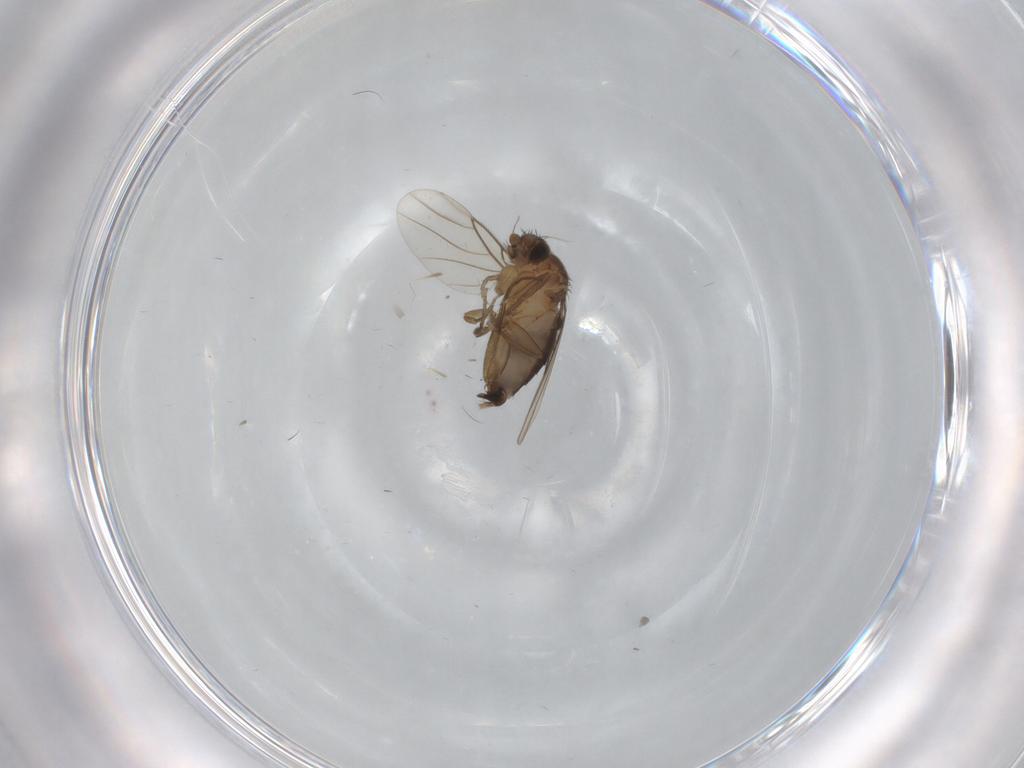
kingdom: Animalia
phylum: Arthropoda
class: Insecta
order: Diptera
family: Phoridae
